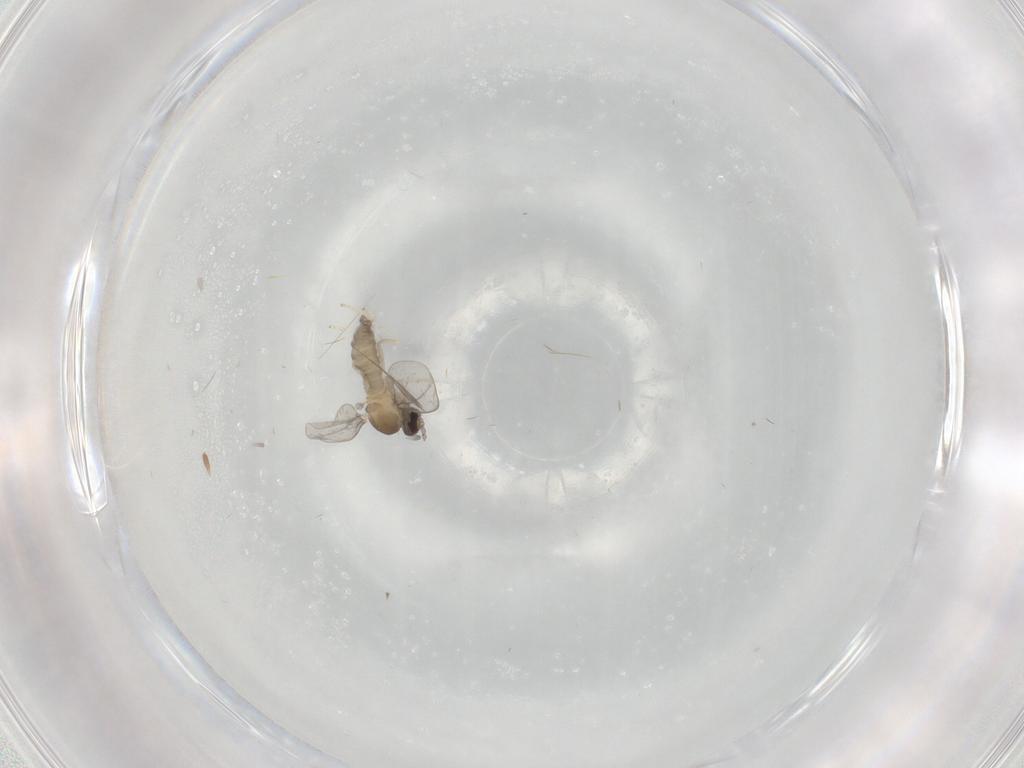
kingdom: Animalia
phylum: Arthropoda
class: Insecta
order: Diptera
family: Cecidomyiidae
